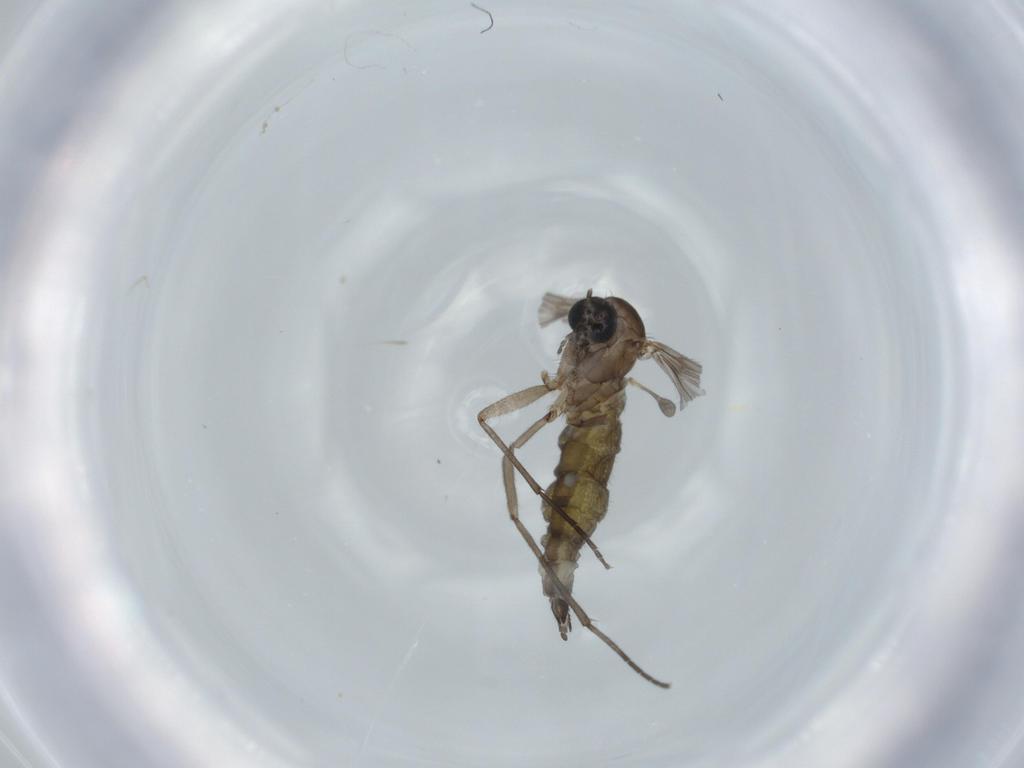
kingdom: Animalia
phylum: Arthropoda
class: Insecta
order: Diptera
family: Sciaridae
